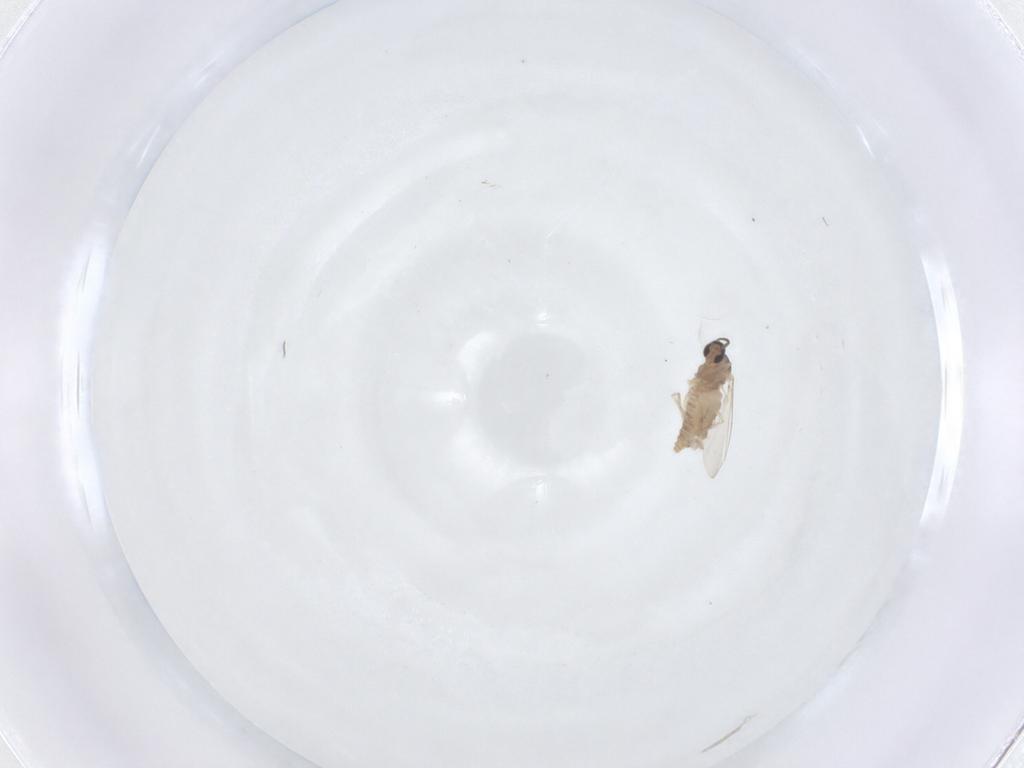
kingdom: Animalia
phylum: Arthropoda
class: Insecta
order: Diptera
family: Cecidomyiidae
